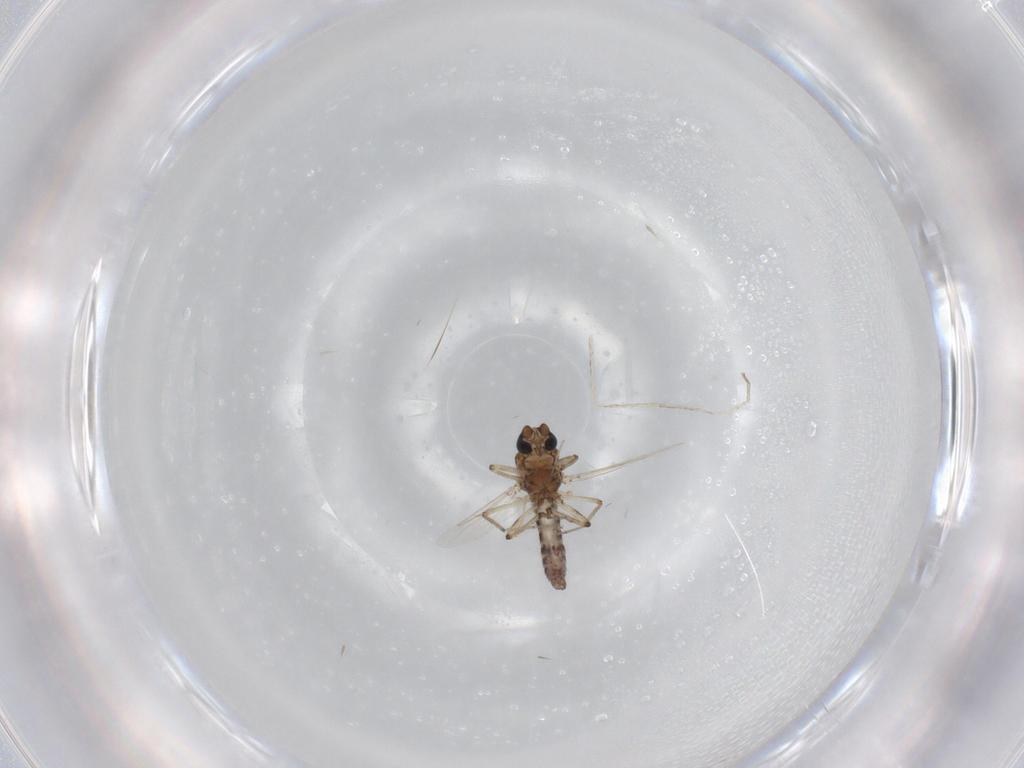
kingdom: Animalia
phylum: Arthropoda
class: Insecta
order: Diptera
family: Ceratopogonidae
